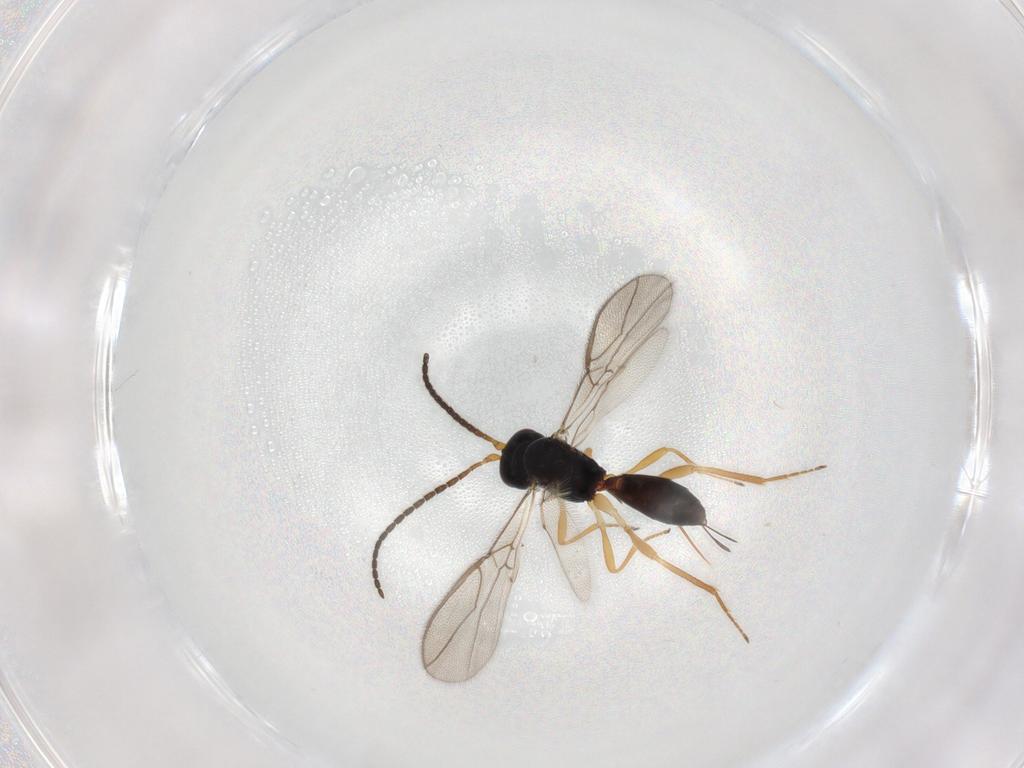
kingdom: Animalia
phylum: Arthropoda
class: Insecta
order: Hymenoptera
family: Braconidae
